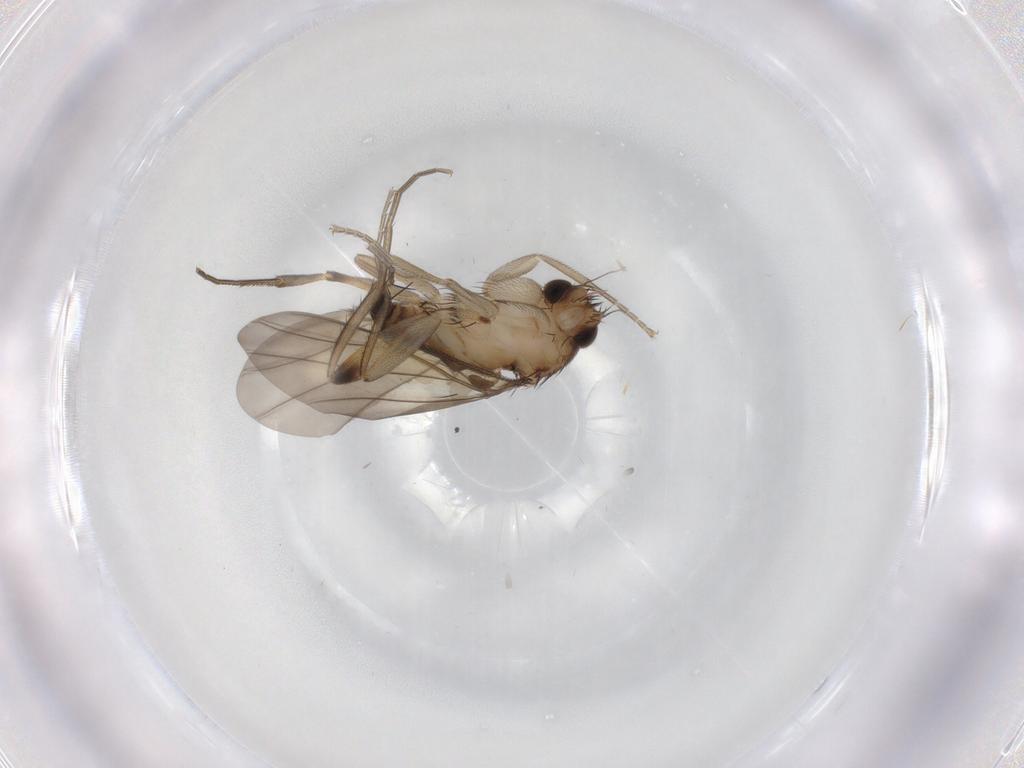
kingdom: Animalia
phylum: Arthropoda
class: Insecta
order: Diptera
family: Phoridae
